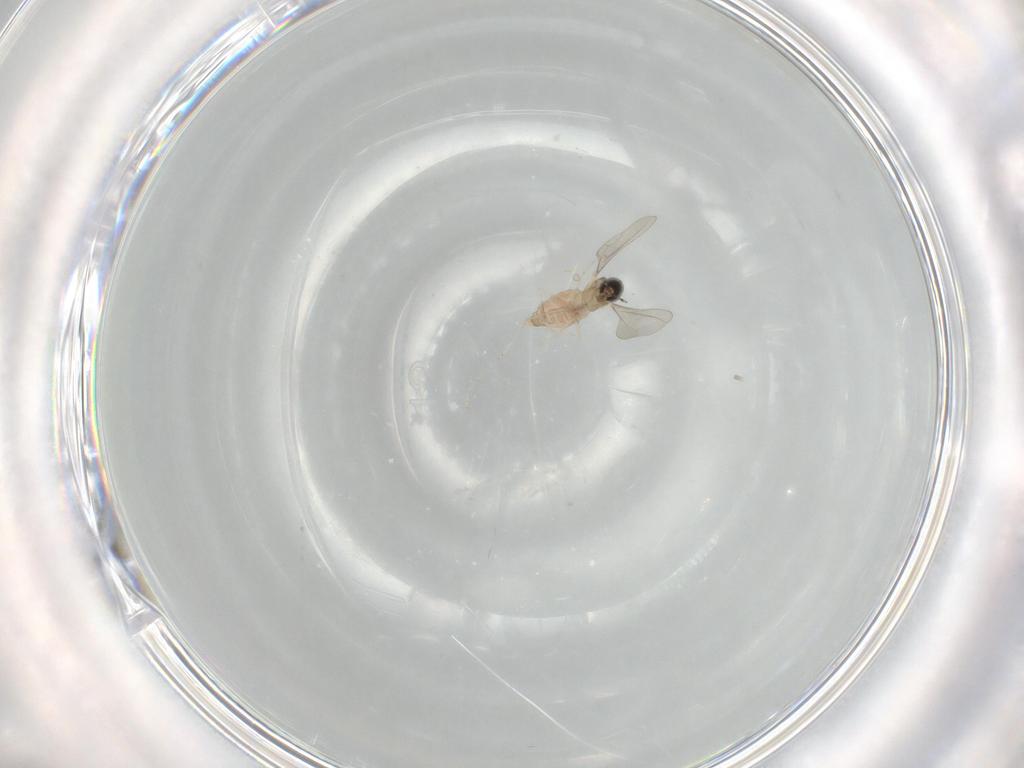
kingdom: Animalia
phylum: Arthropoda
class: Insecta
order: Diptera
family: Cecidomyiidae
